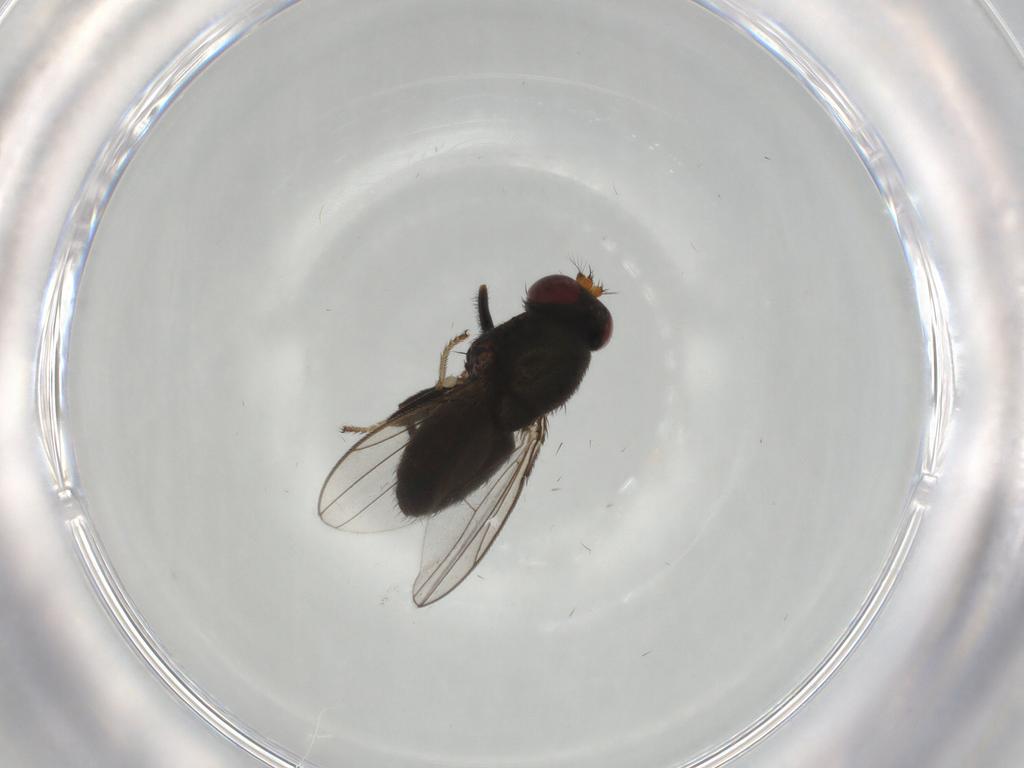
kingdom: Animalia
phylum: Arthropoda
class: Insecta
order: Diptera
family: Ephydridae
